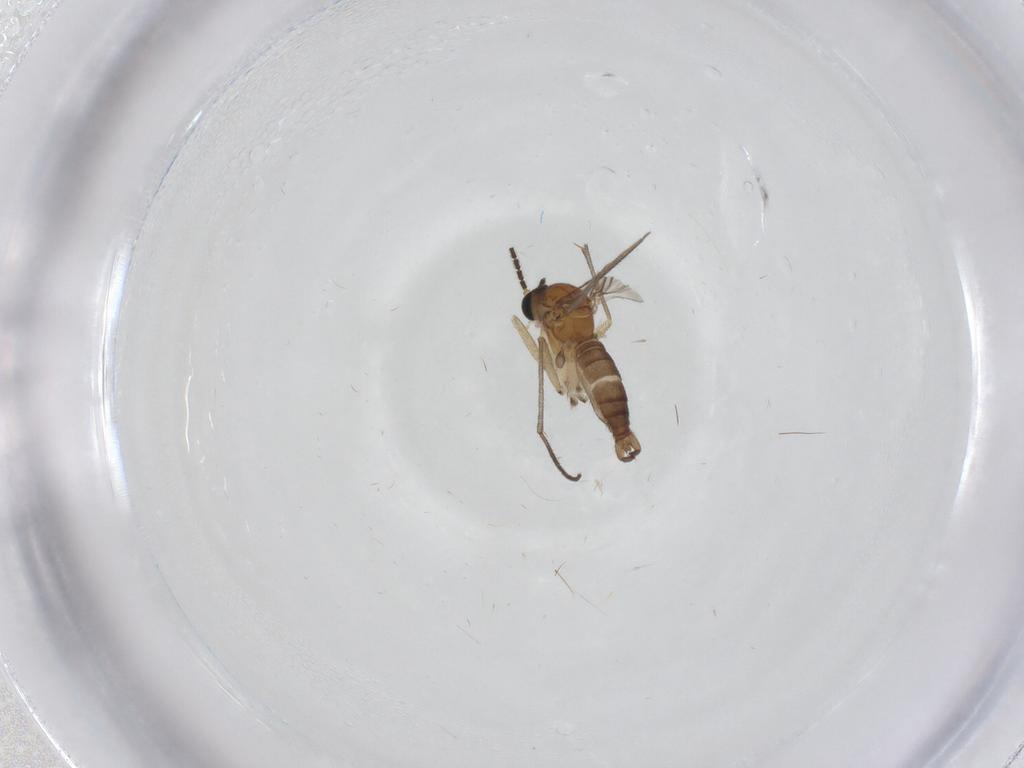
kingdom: Animalia
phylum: Arthropoda
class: Insecta
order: Diptera
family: Sciaridae
